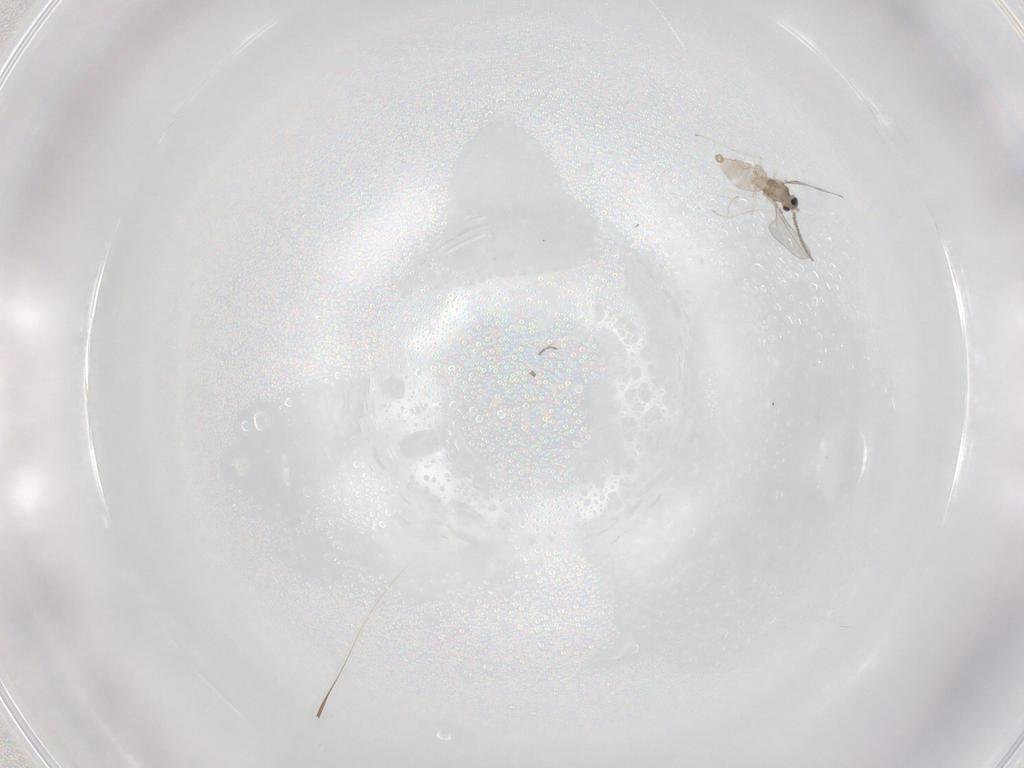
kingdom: Animalia
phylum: Arthropoda
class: Insecta
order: Diptera
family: Cecidomyiidae
